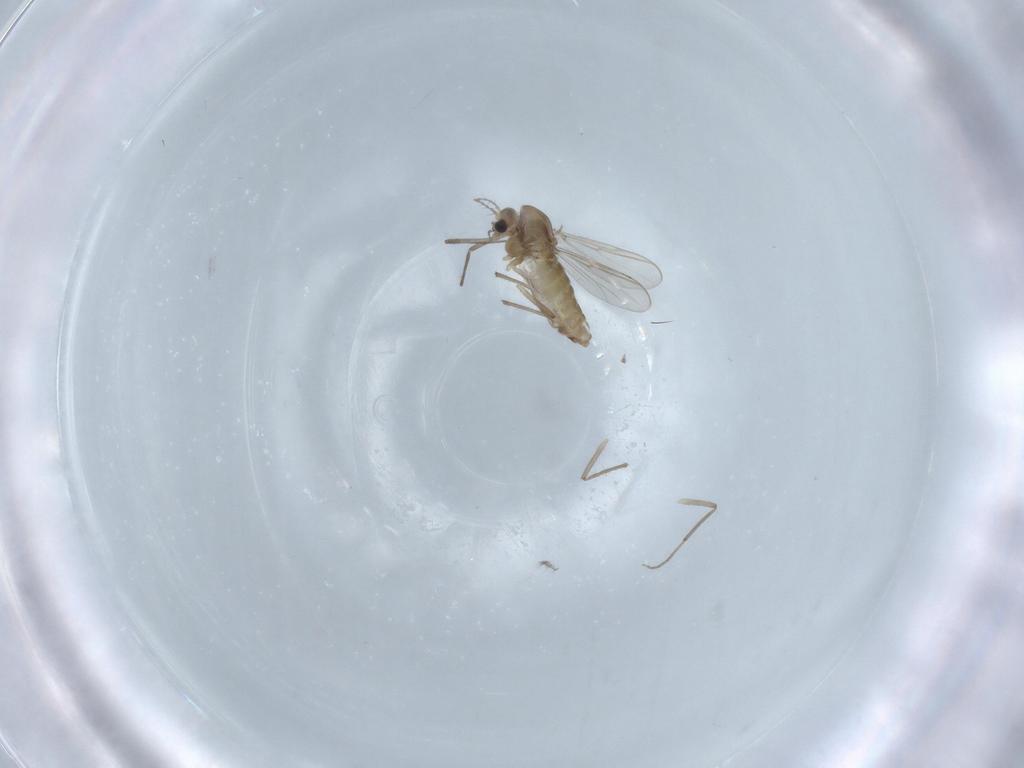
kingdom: Animalia
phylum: Arthropoda
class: Insecta
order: Diptera
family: Chironomidae
